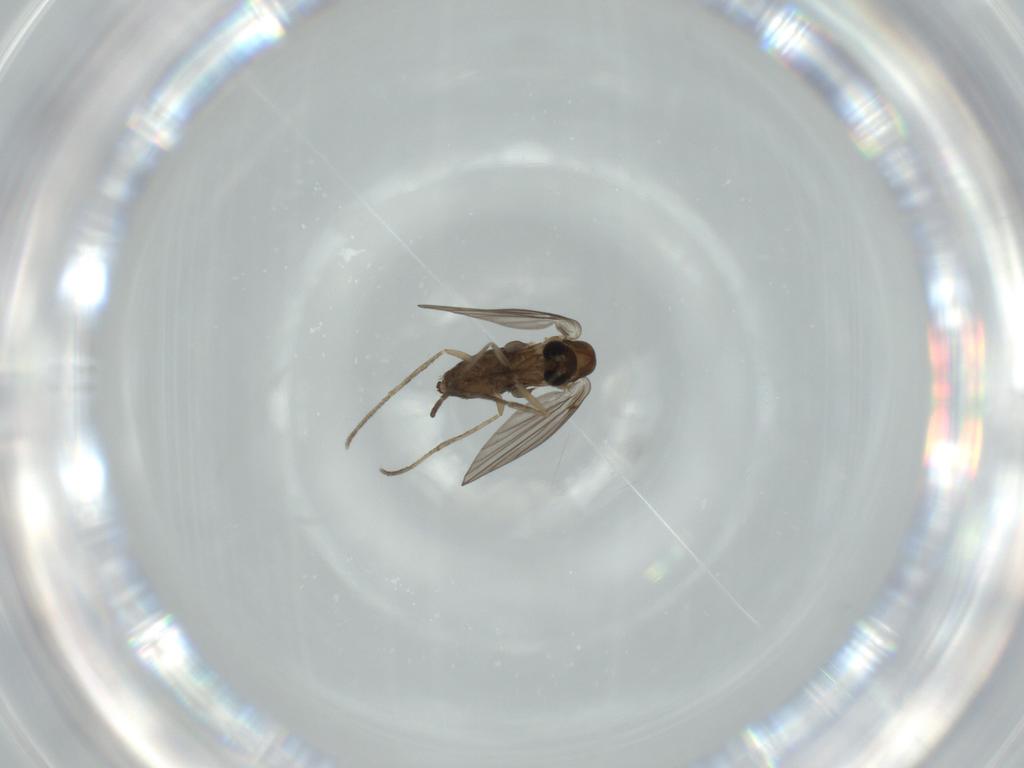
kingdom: Animalia
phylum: Arthropoda
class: Insecta
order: Diptera
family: Psychodidae
